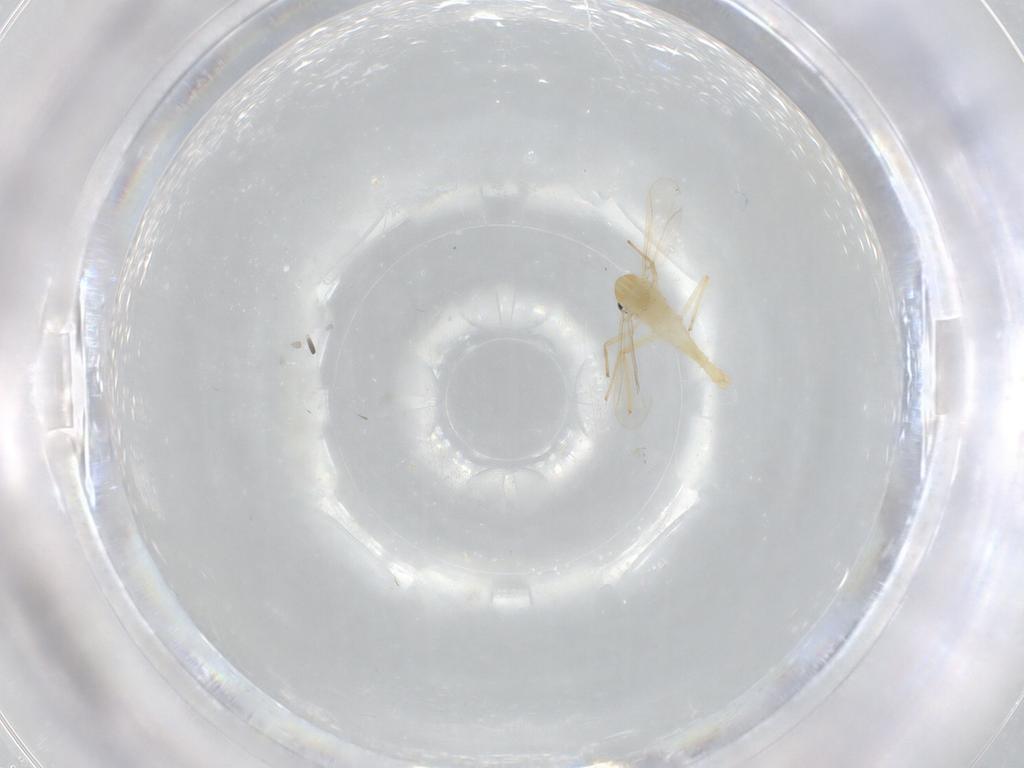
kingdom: Animalia
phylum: Arthropoda
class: Insecta
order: Diptera
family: Chironomidae
